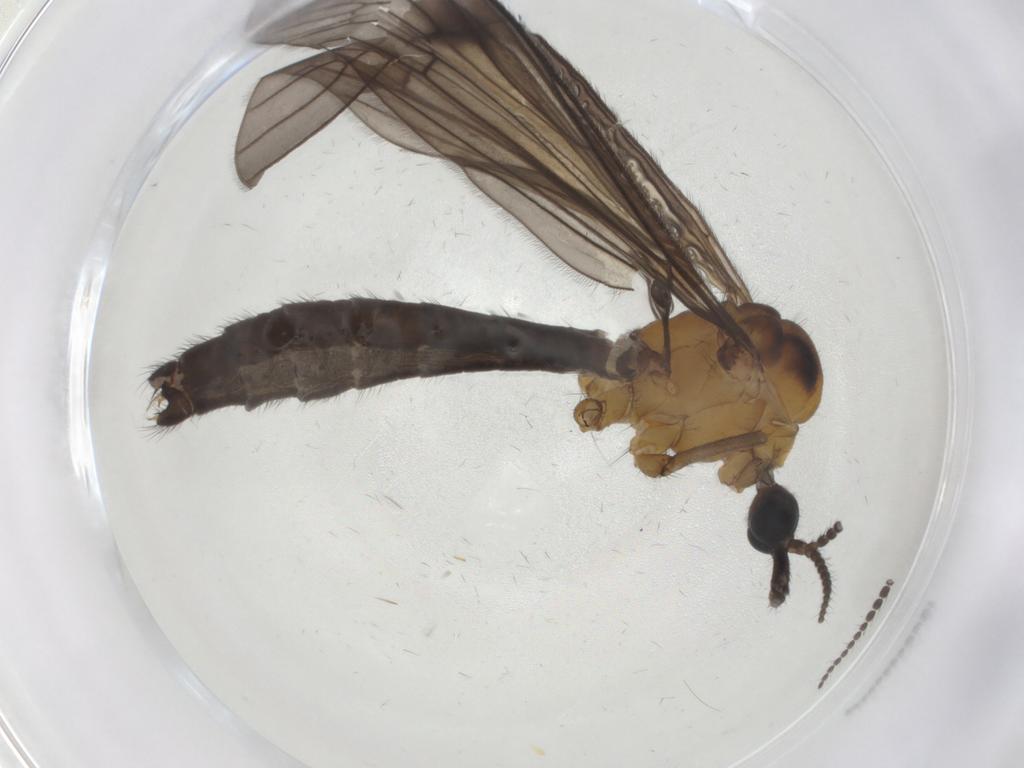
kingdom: Animalia
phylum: Arthropoda
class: Insecta
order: Diptera
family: Limoniidae
